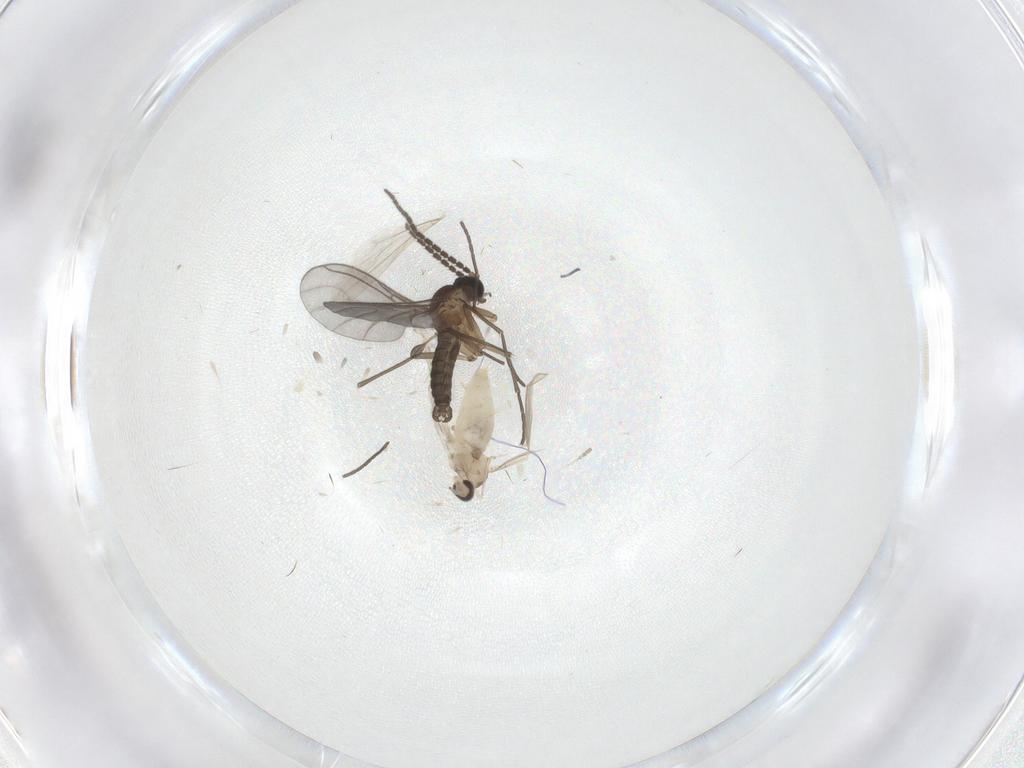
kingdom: Animalia
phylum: Arthropoda
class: Insecta
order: Diptera
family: Sciaridae
